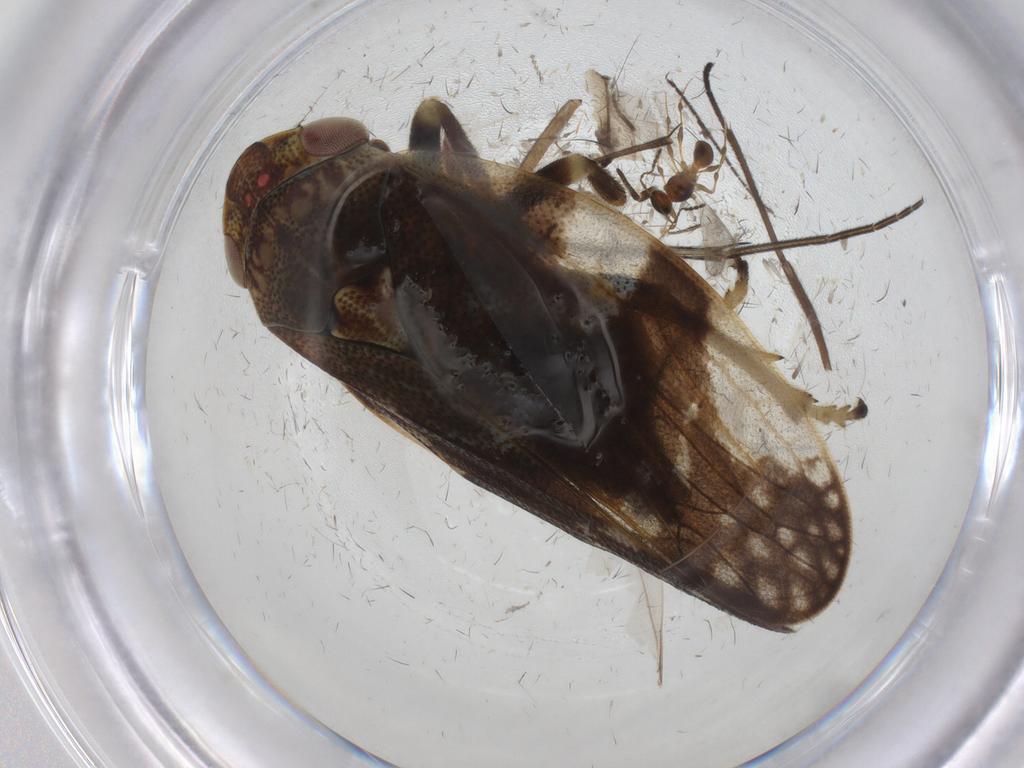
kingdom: Animalia
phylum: Arthropoda
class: Insecta
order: Hemiptera
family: Aphrophoridae
